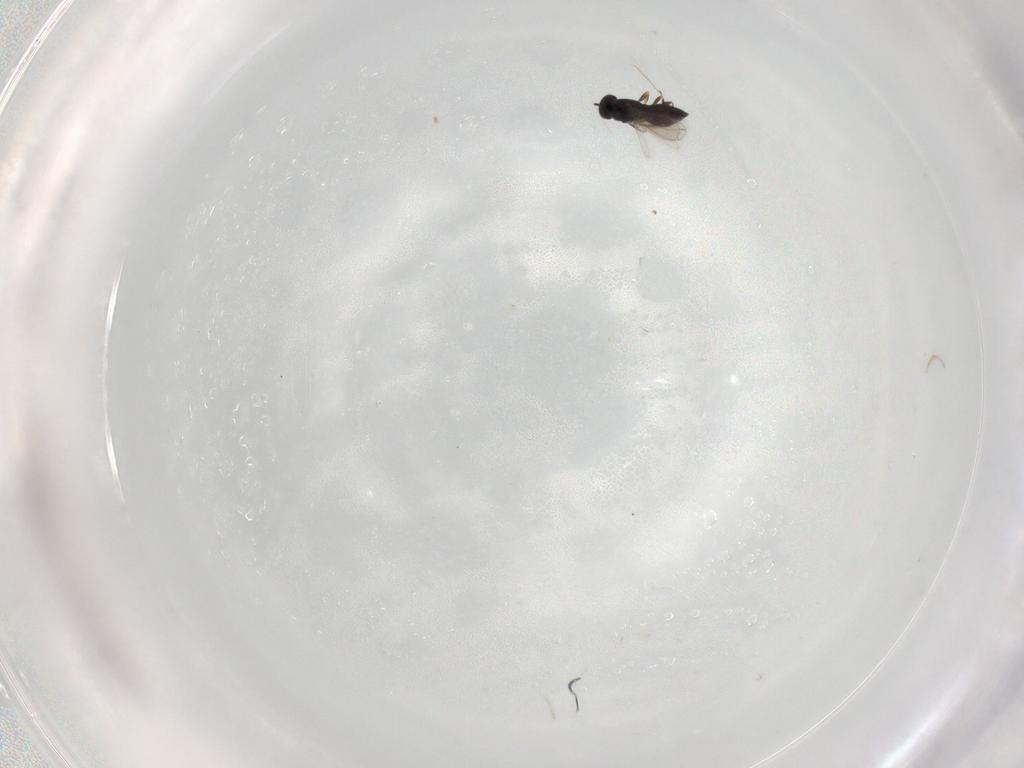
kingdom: Animalia
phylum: Arthropoda
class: Insecta
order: Hymenoptera
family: Scelionidae
